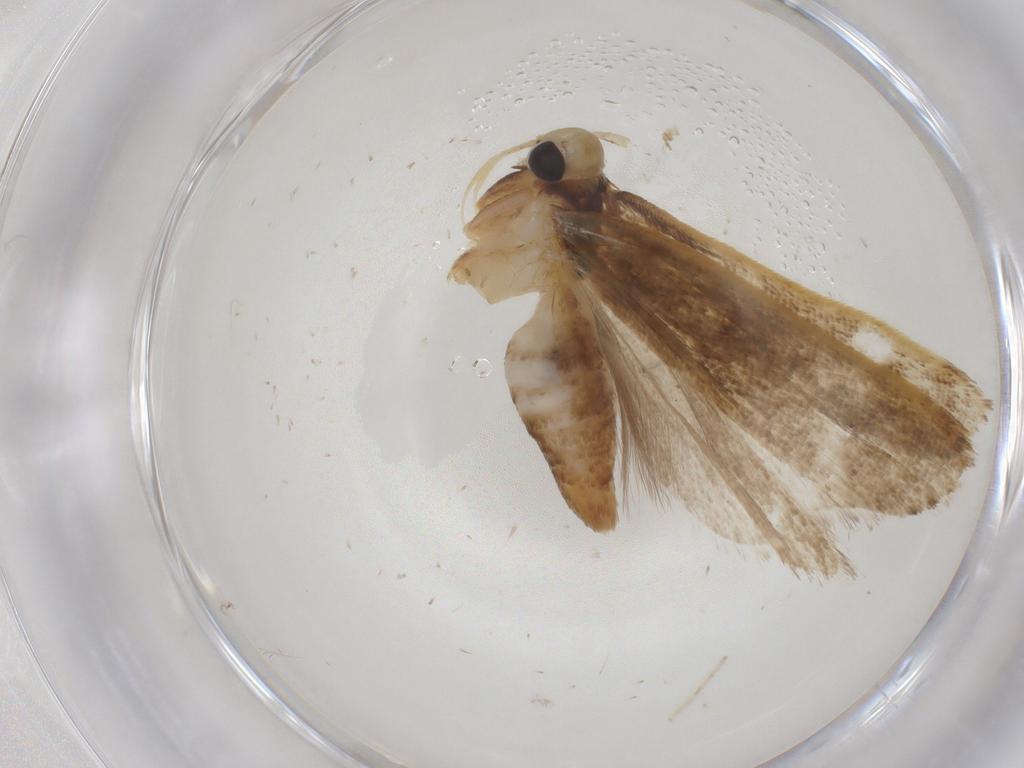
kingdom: Animalia
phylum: Arthropoda
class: Insecta
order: Lepidoptera
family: Gelechiidae
